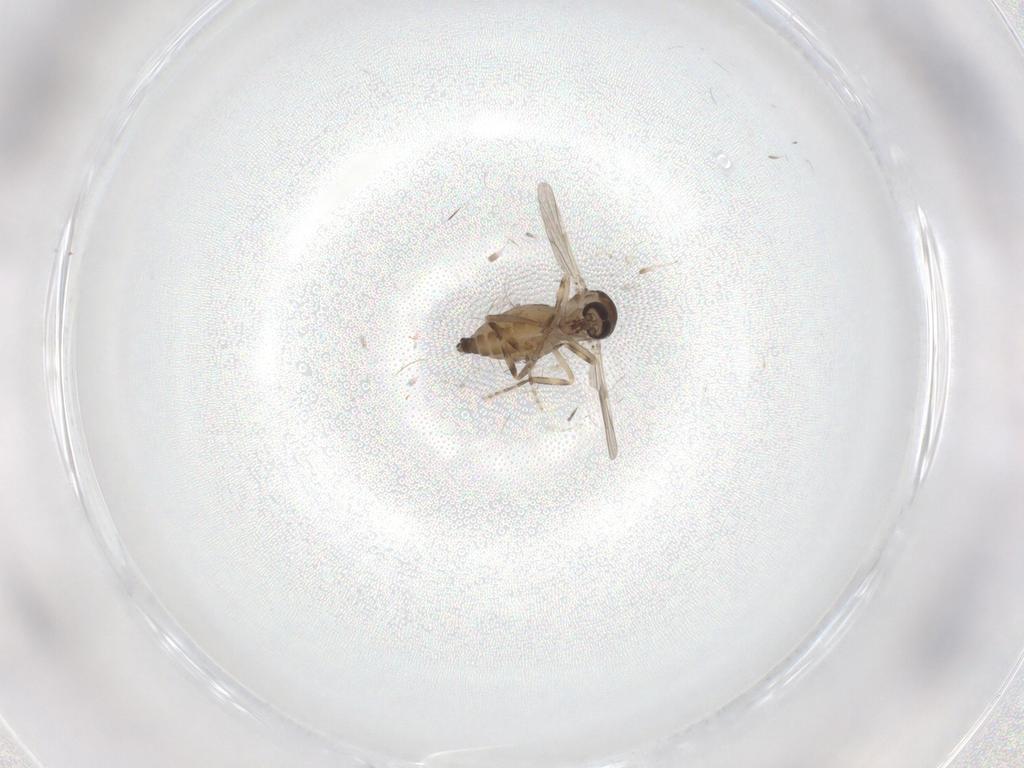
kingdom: Animalia
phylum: Arthropoda
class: Insecta
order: Diptera
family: Ceratopogonidae
